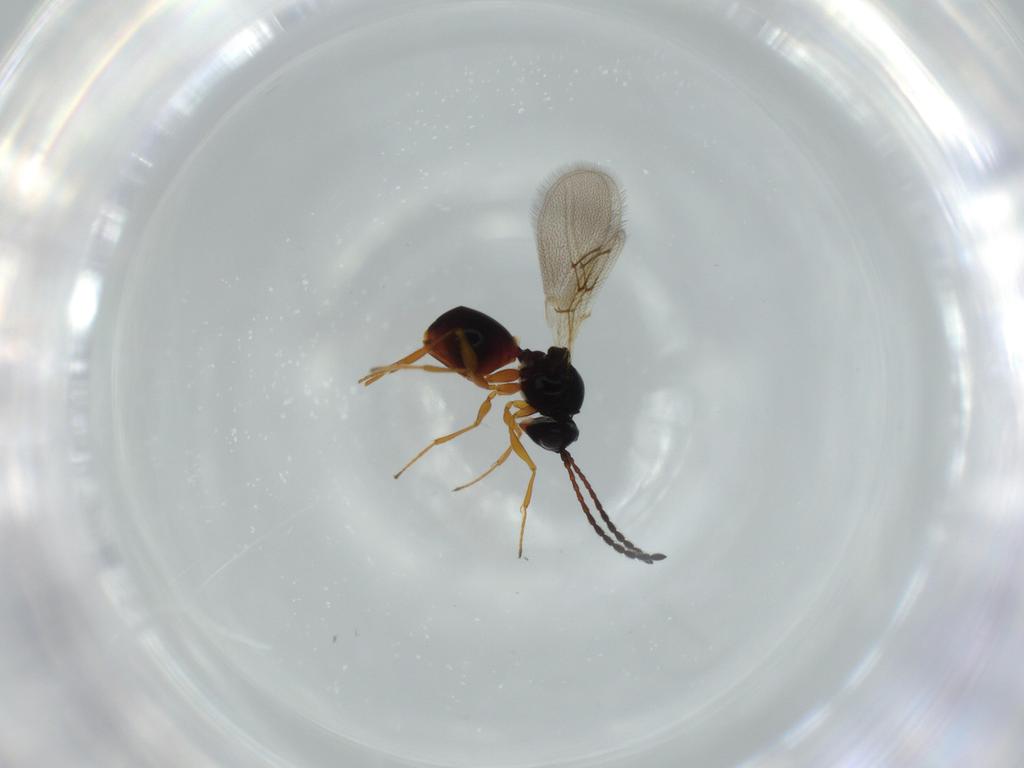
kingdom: Animalia
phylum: Arthropoda
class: Insecta
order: Hymenoptera
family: Figitidae
